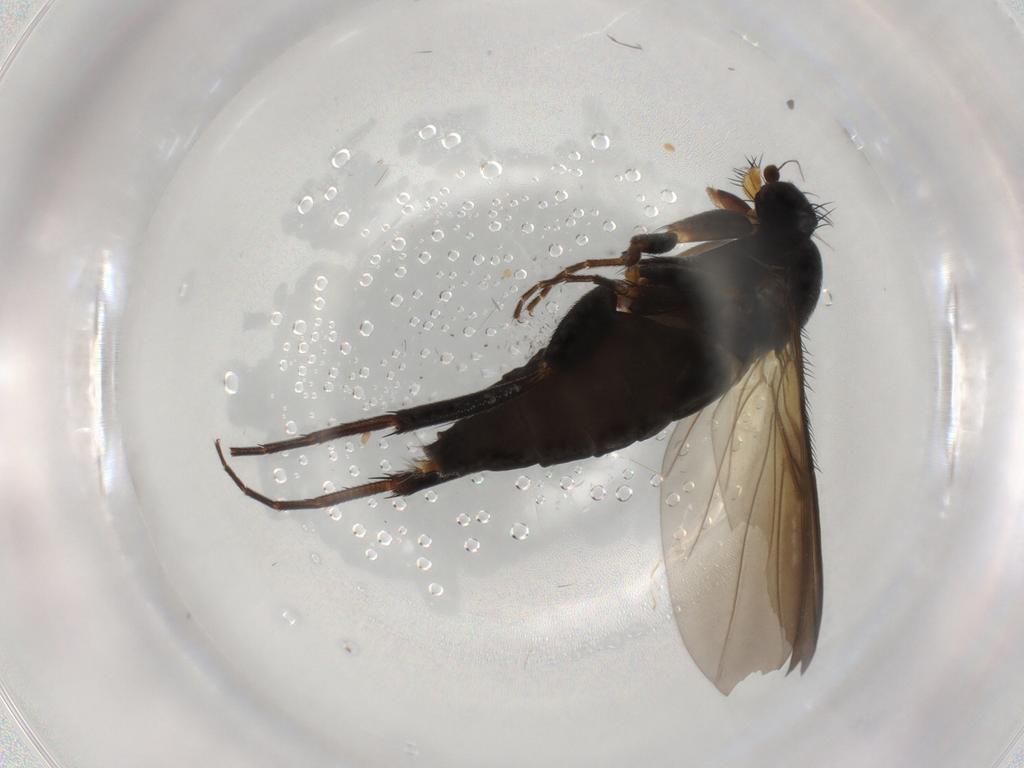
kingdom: Animalia
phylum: Arthropoda
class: Insecta
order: Diptera
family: Phoridae
